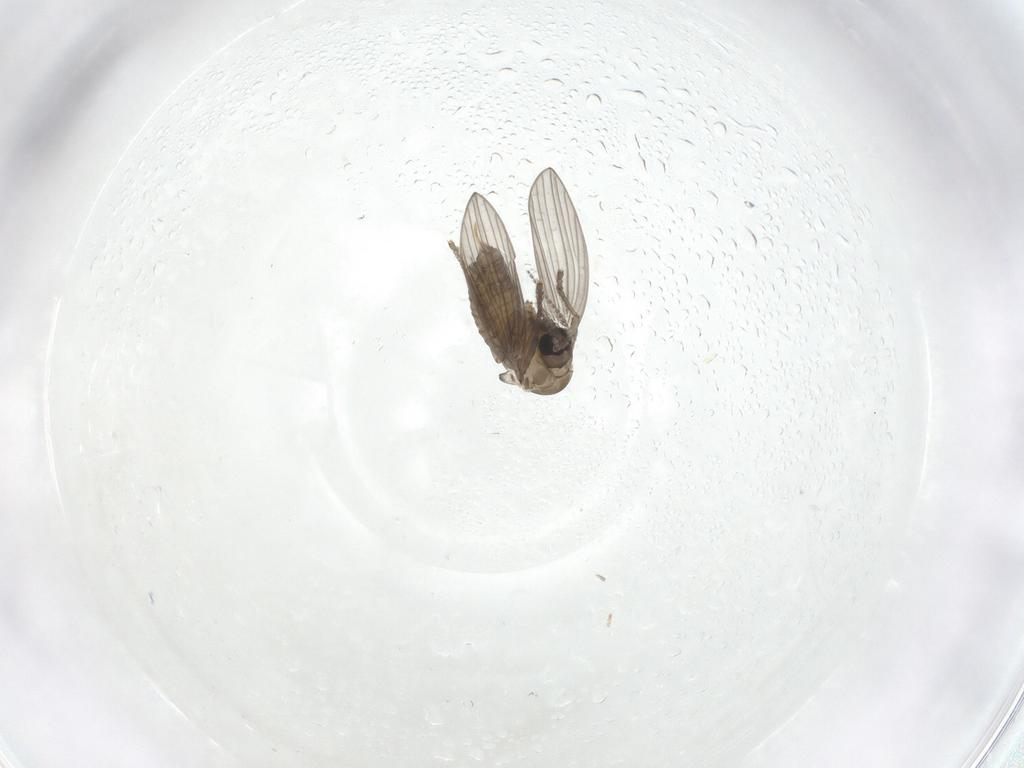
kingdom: Animalia
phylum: Arthropoda
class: Insecta
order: Diptera
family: Psychodidae
